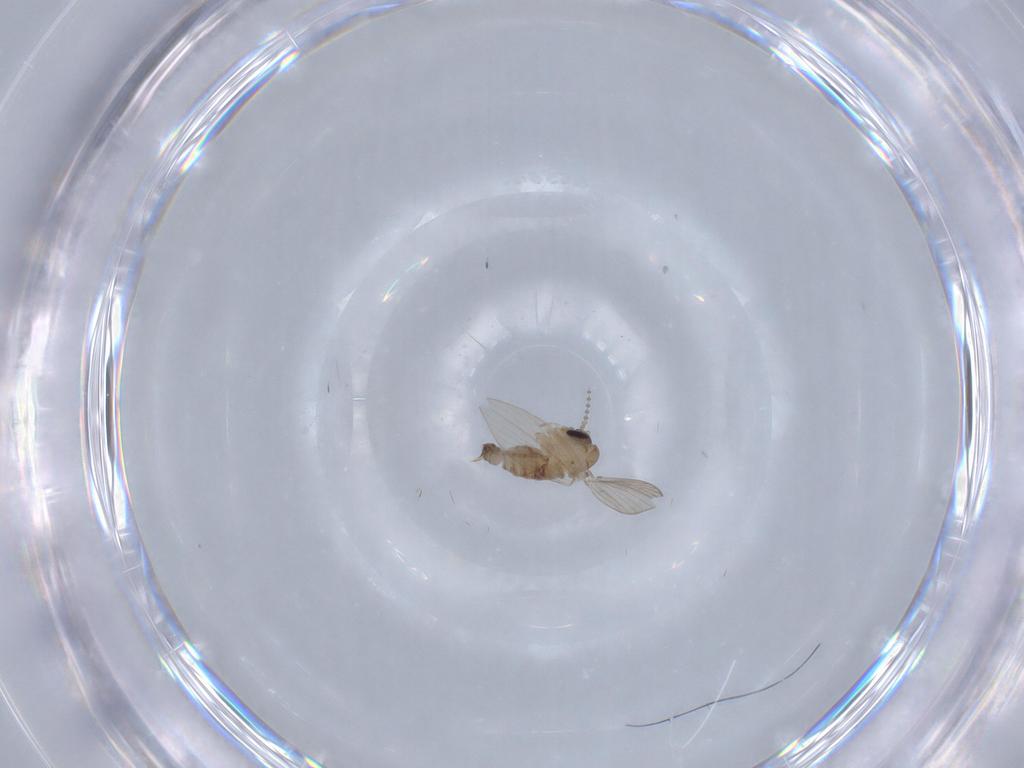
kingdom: Animalia
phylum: Arthropoda
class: Insecta
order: Diptera
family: Psychodidae
